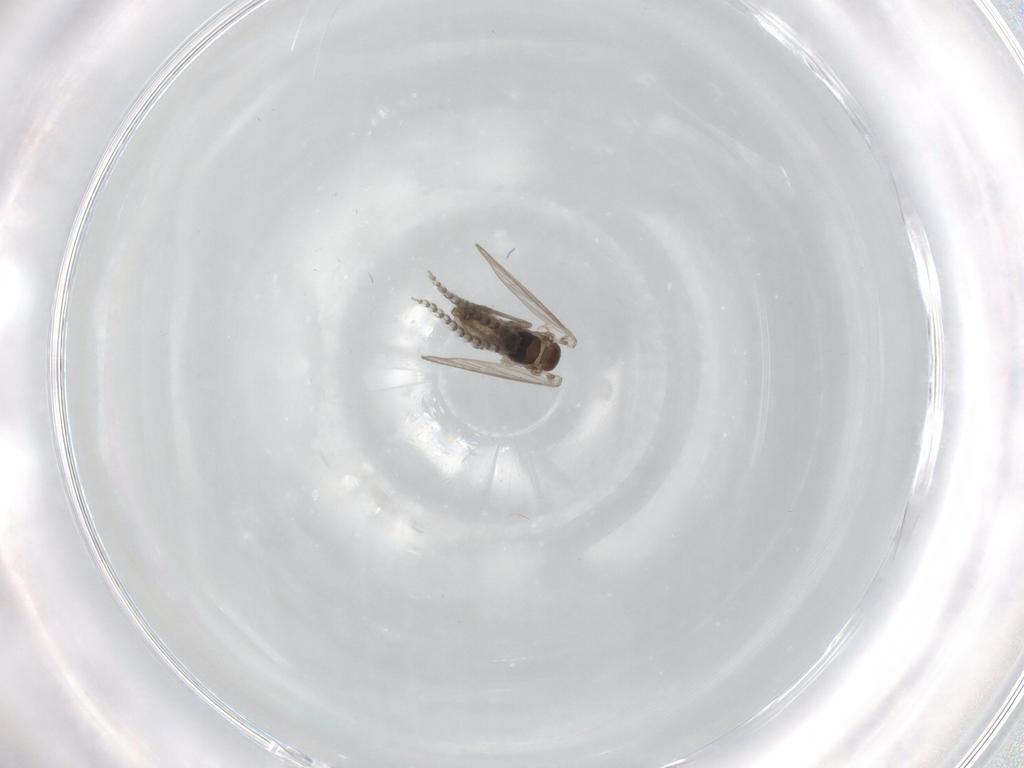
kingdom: Animalia
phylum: Arthropoda
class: Insecta
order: Diptera
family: Psychodidae
